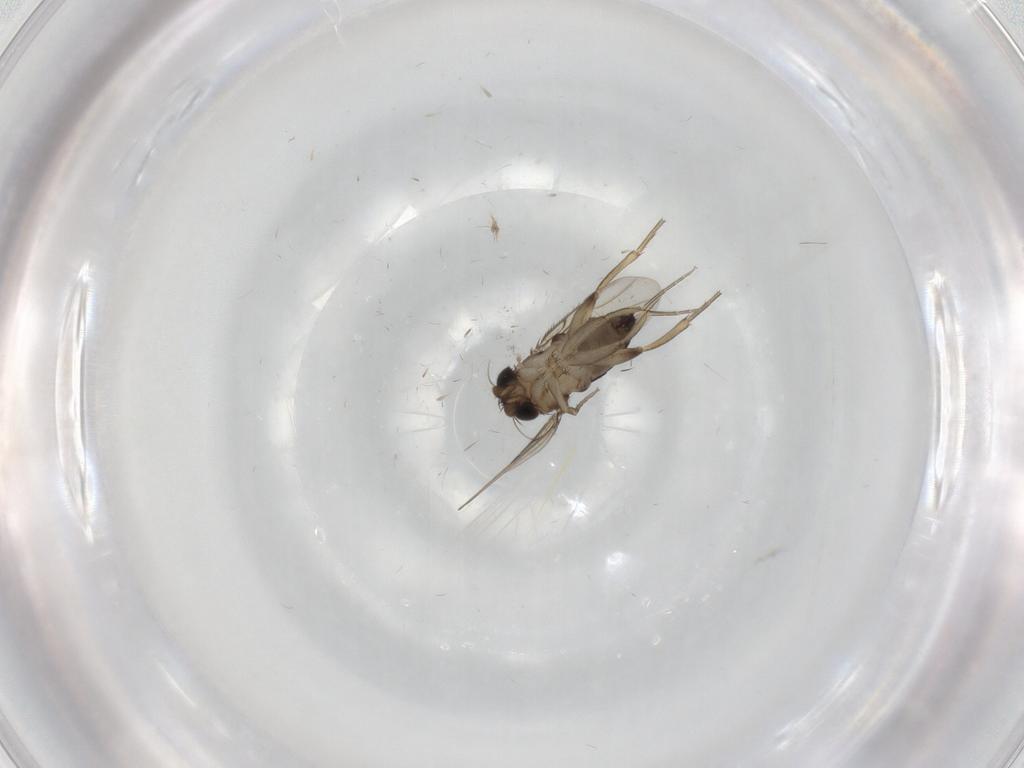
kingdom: Animalia
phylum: Arthropoda
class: Insecta
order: Diptera
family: Phoridae
